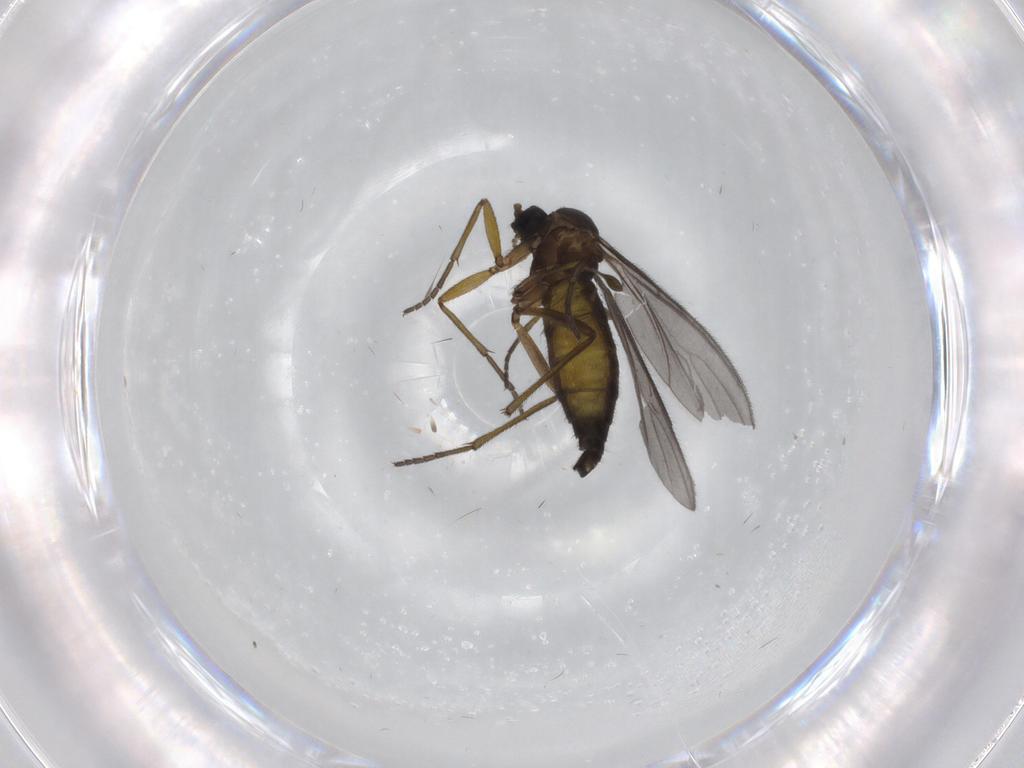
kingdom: Animalia
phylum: Arthropoda
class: Insecta
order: Diptera
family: Sciaridae
